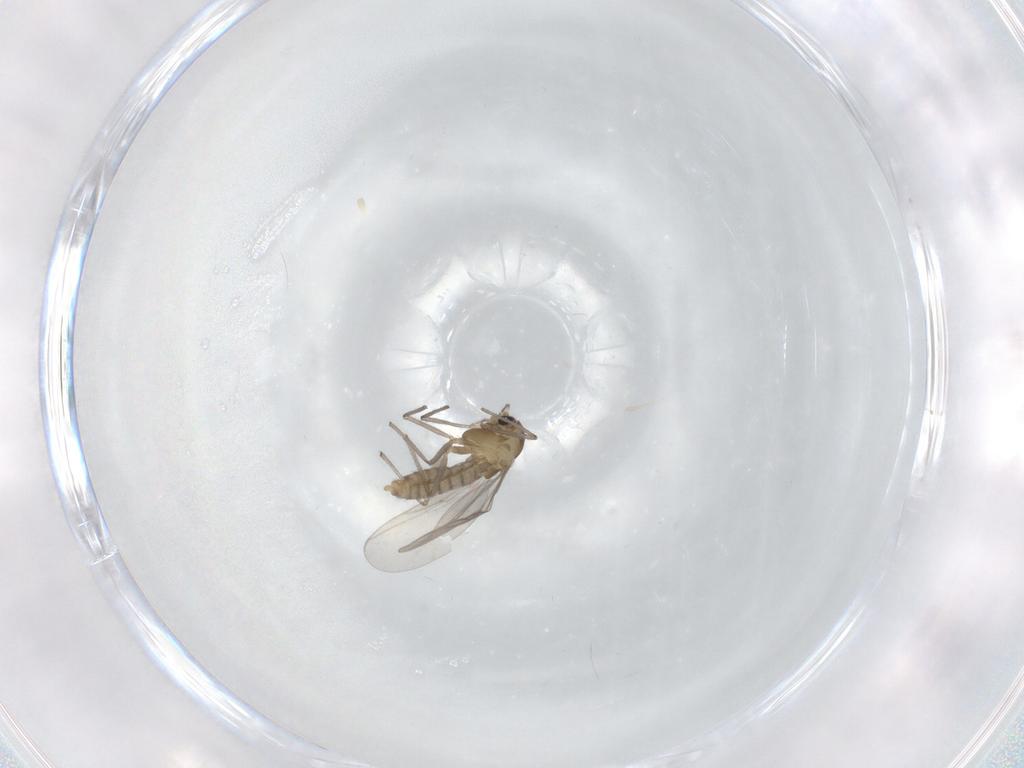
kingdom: Animalia
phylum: Arthropoda
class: Insecta
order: Diptera
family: Chironomidae
